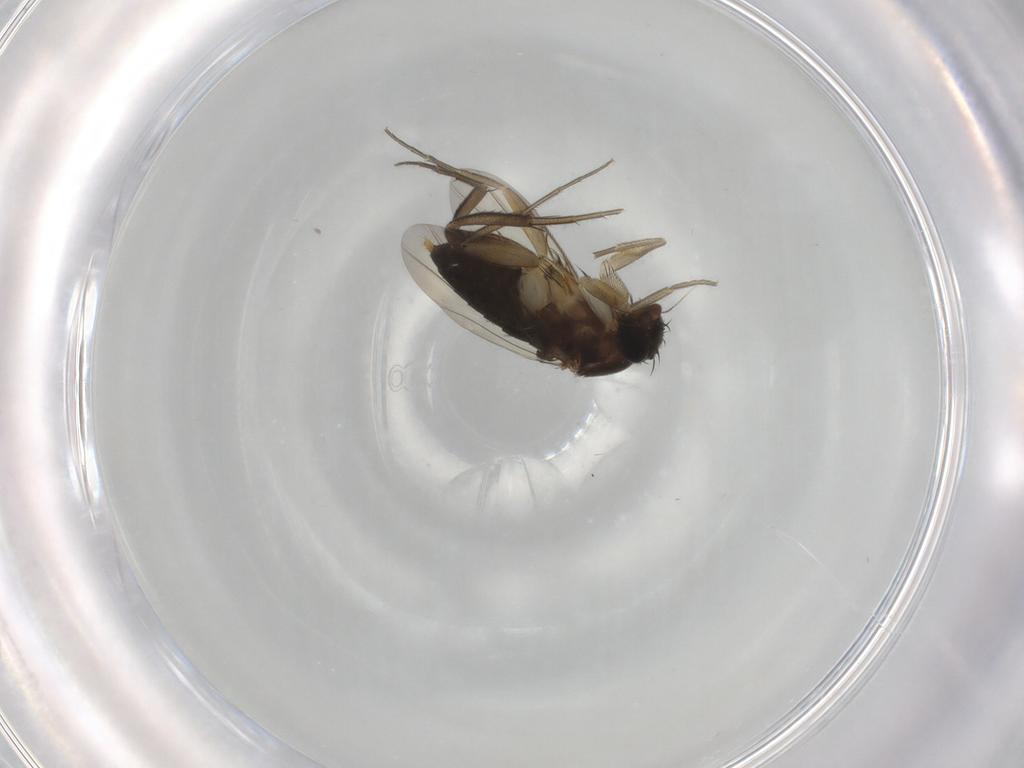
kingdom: Animalia
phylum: Arthropoda
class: Insecta
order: Diptera
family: Phoridae
